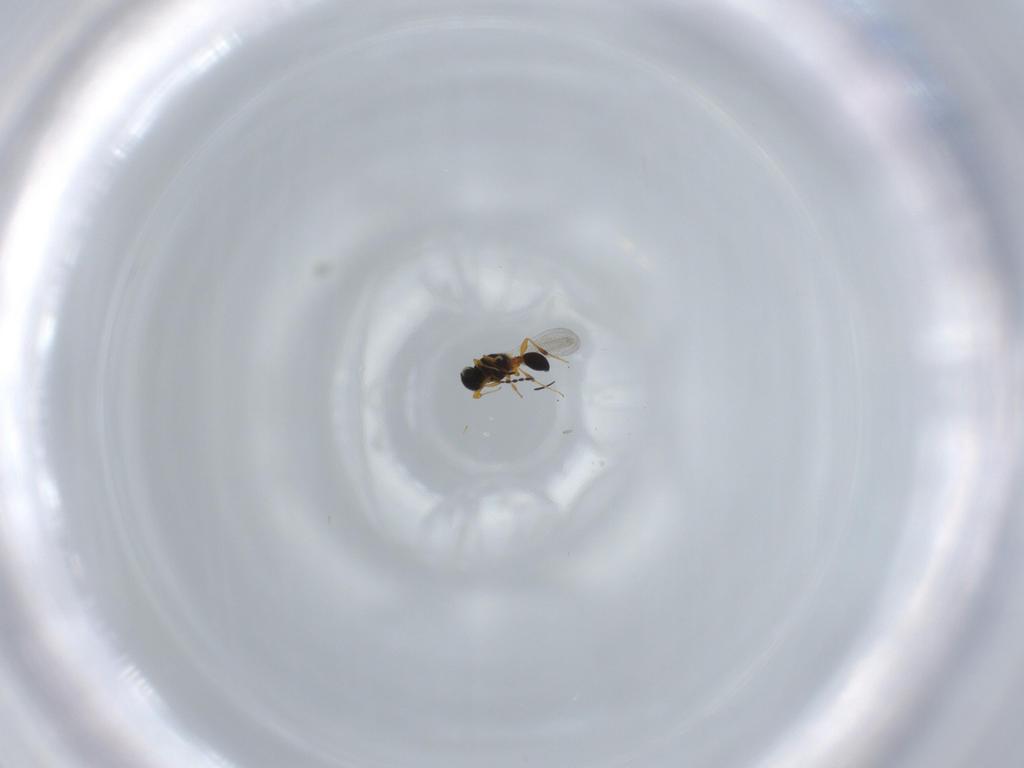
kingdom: Animalia
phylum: Arthropoda
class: Insecta
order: Hymenoptera
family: Platygastridae
